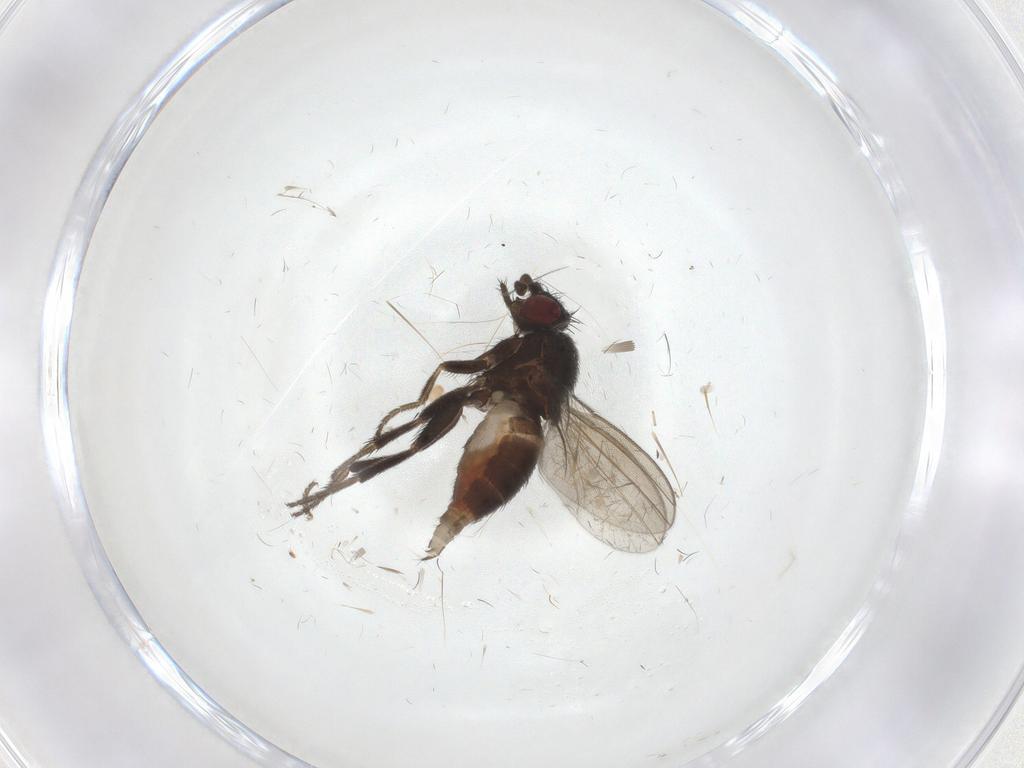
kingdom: Animalia
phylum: Arthropoda
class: Insecta
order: Diptera
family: Milichiidae
